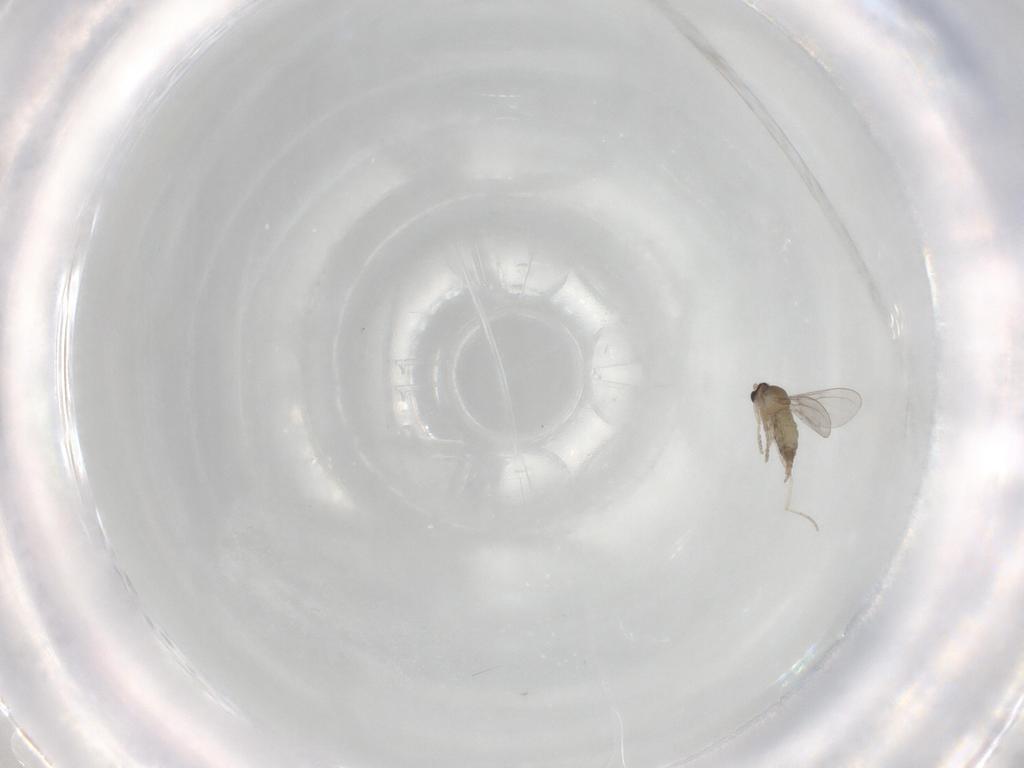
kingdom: Animalia
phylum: Arthropoda
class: Insecta
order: Diptera
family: Cecidomyiidae
